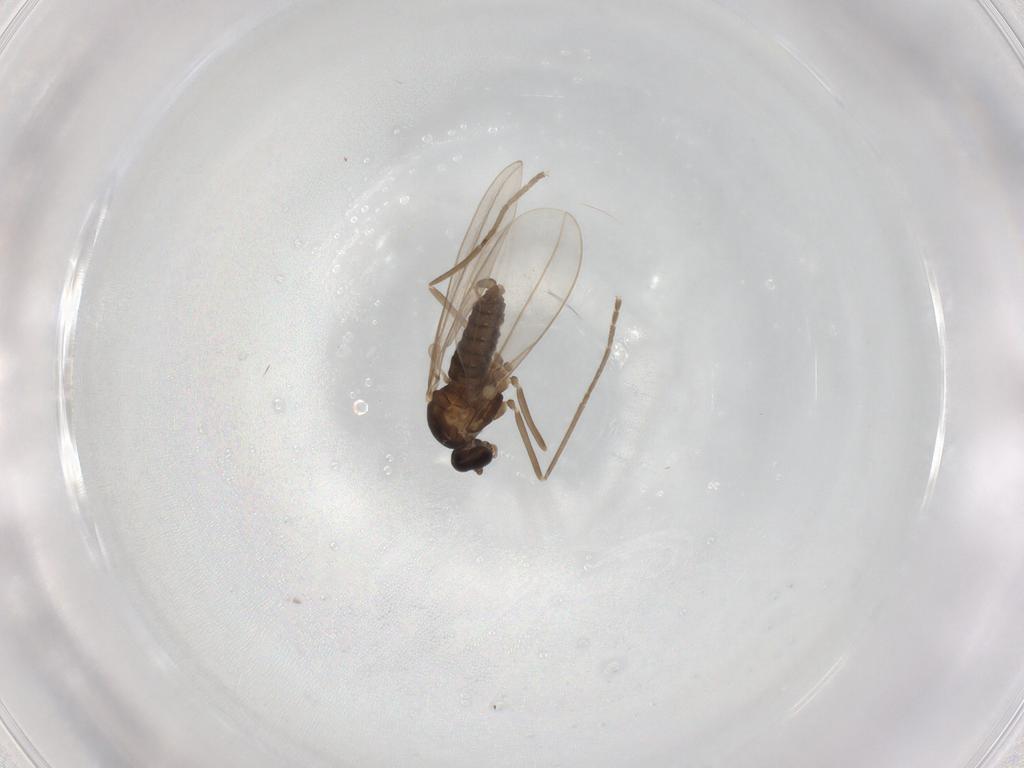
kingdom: Animalia
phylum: Arthropoda
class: Insecta
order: Diptera
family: Cecidomyiidae
